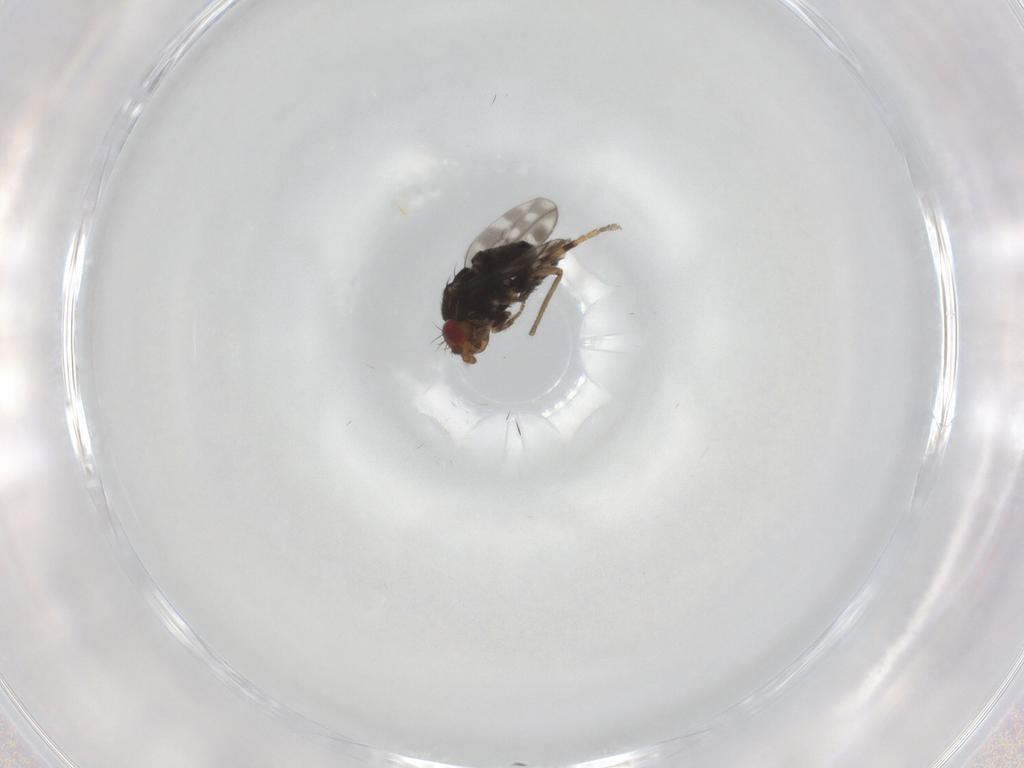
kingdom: Animalia
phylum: Arthropoda
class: Insecta
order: Diptera
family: Sphaeroceridae
